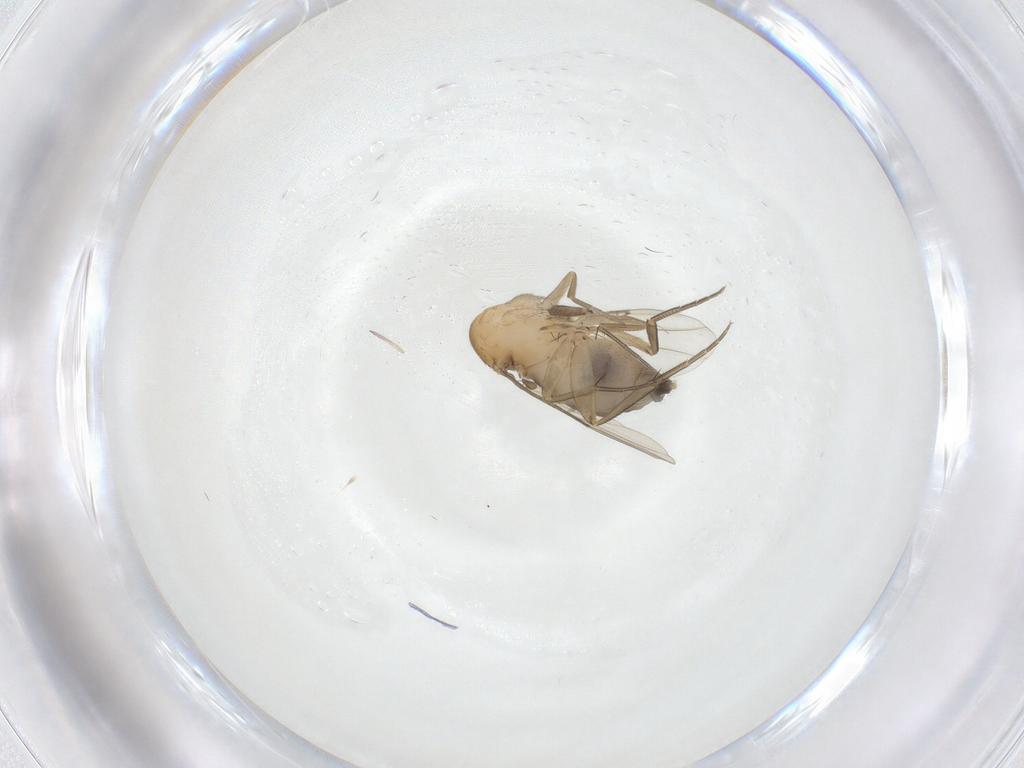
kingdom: Animalia
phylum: Arthropoda
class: Insecta
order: Diptera
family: Phoridae
